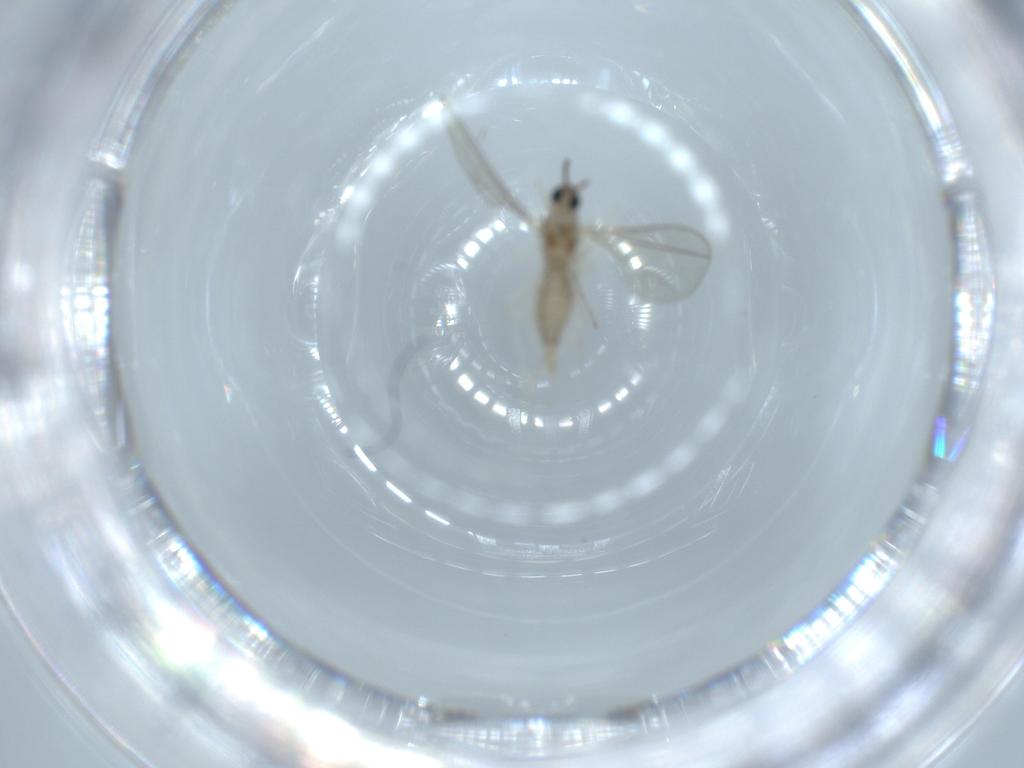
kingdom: Animalia
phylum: Arthropoda
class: Insecta
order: Diptera
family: Cecidomyiidae
